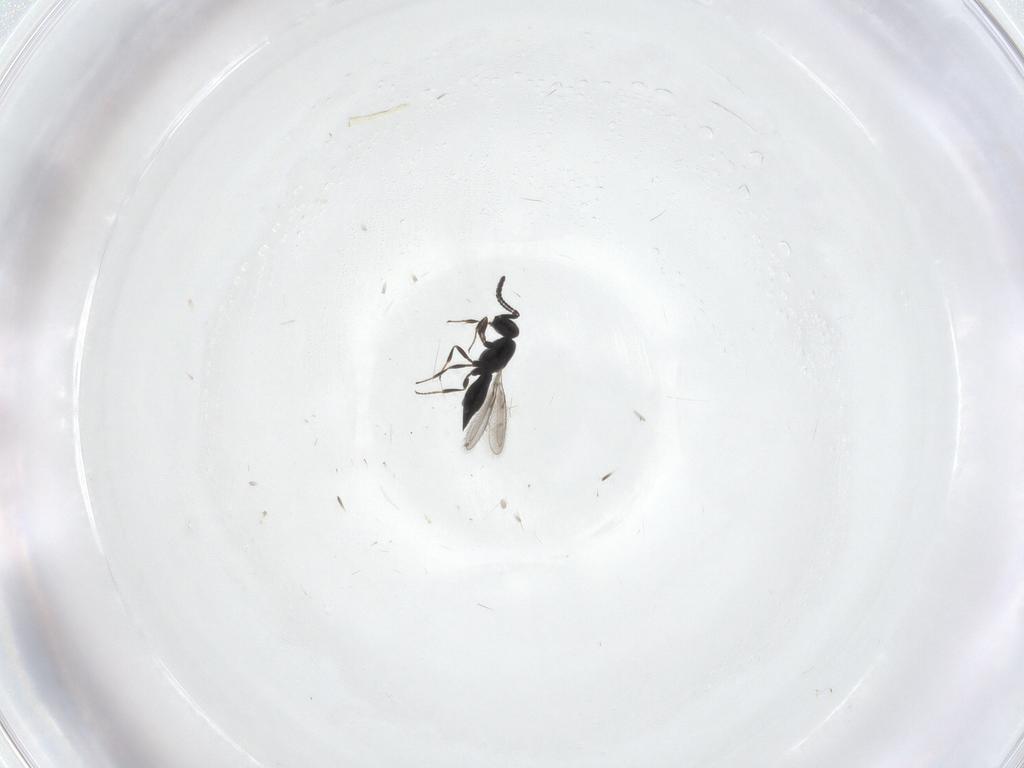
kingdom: Animalia
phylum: Arthropoda
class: Insecta
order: Hymenoptera
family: Scelionidae
